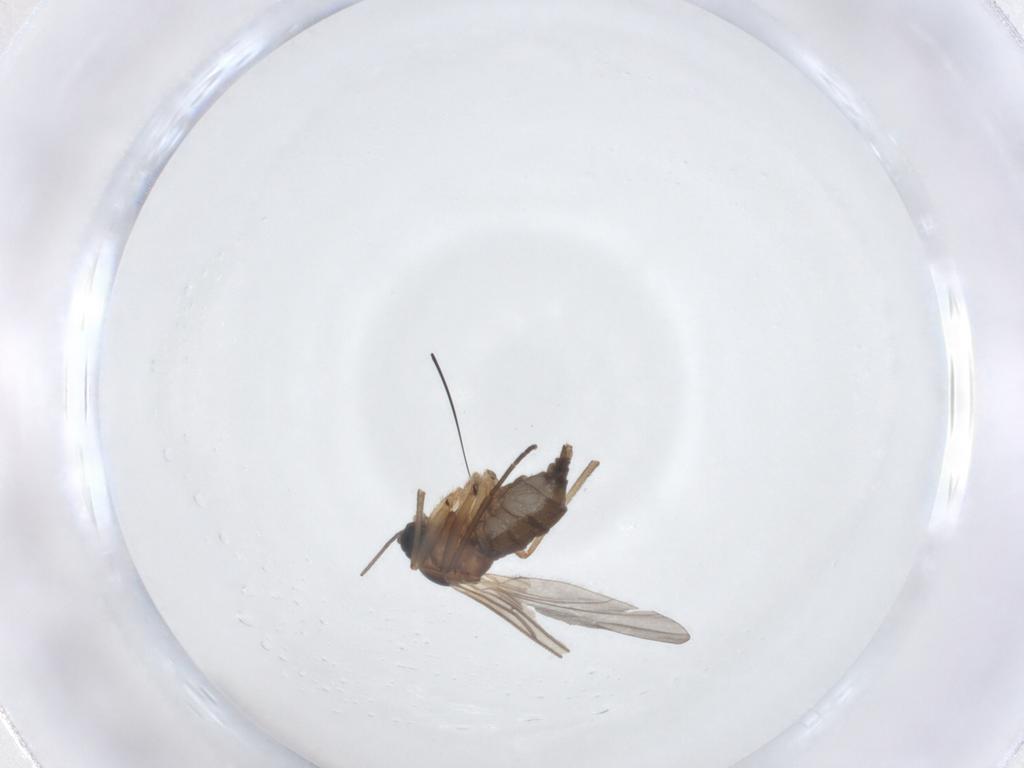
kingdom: Animalia
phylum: Arthropoda
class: Insecta
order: Diptera
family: Sciaridae
